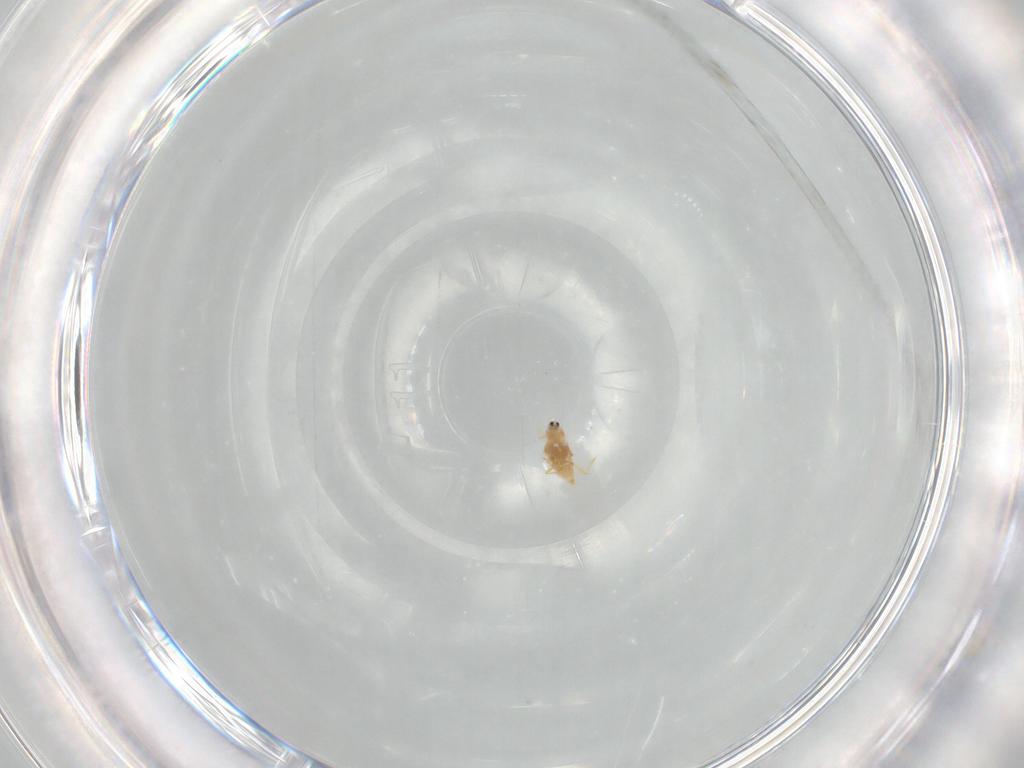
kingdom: Animalia
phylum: Arthropoda
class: Insecta
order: Hemiptera
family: Diaspididae
